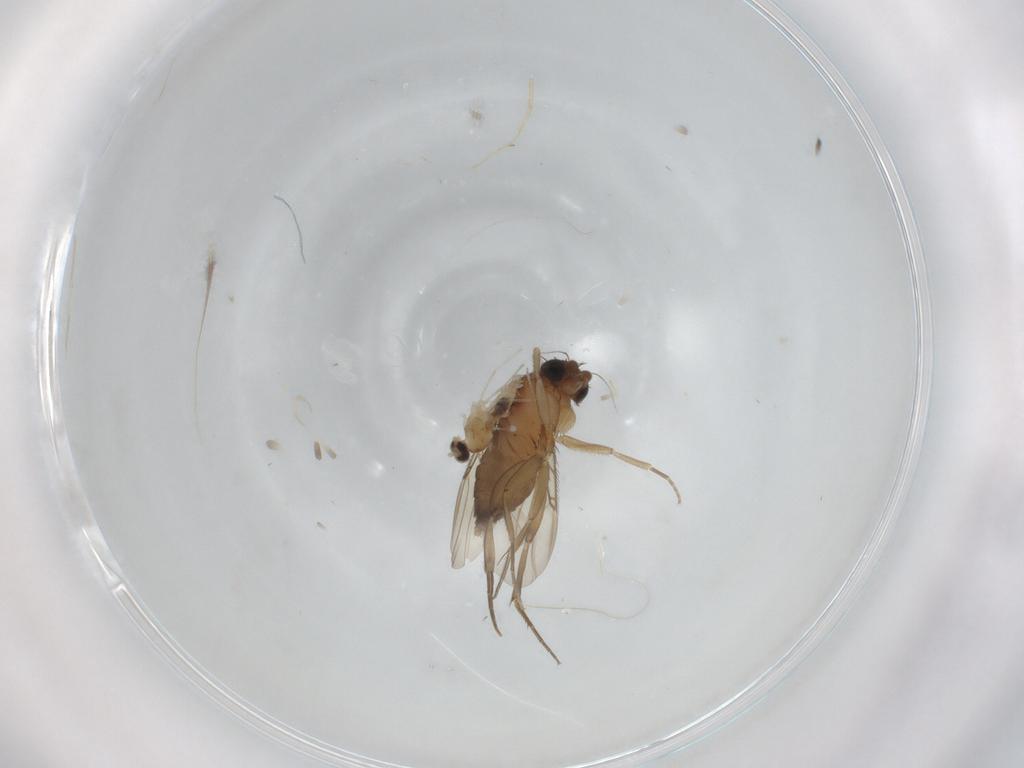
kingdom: Animalia
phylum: Arthropoda
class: Insecta
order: Diptera
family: Phoridae
